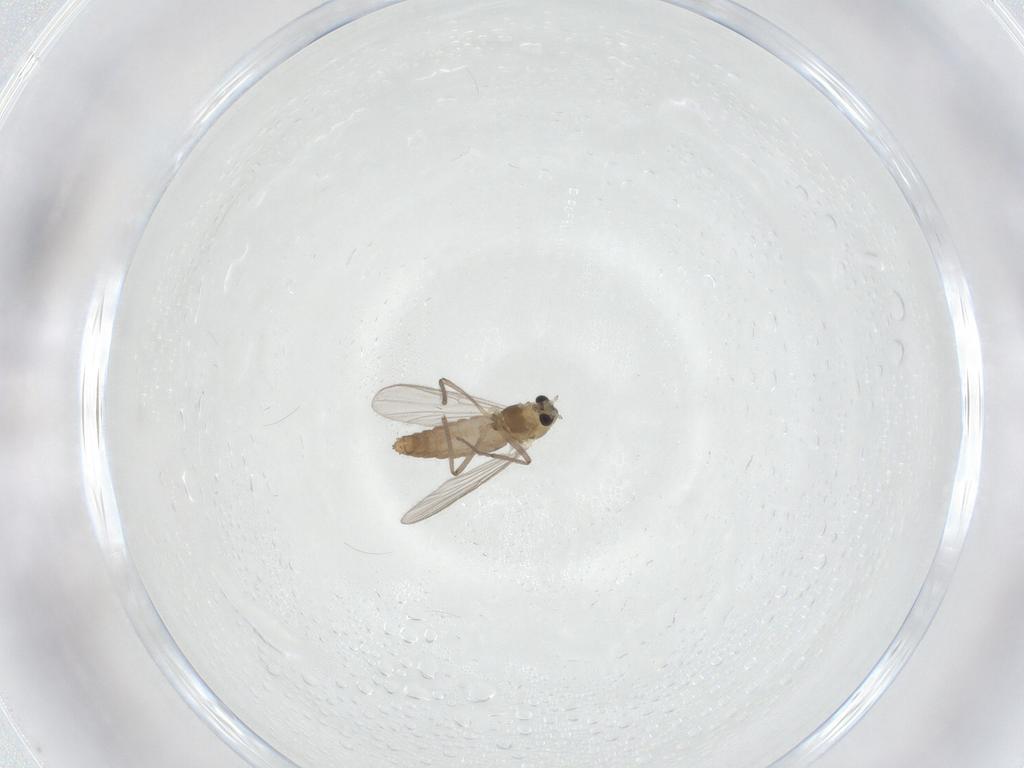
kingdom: Animalia
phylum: Arthropoda
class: Insecta
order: Diptera
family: Chironomidae
